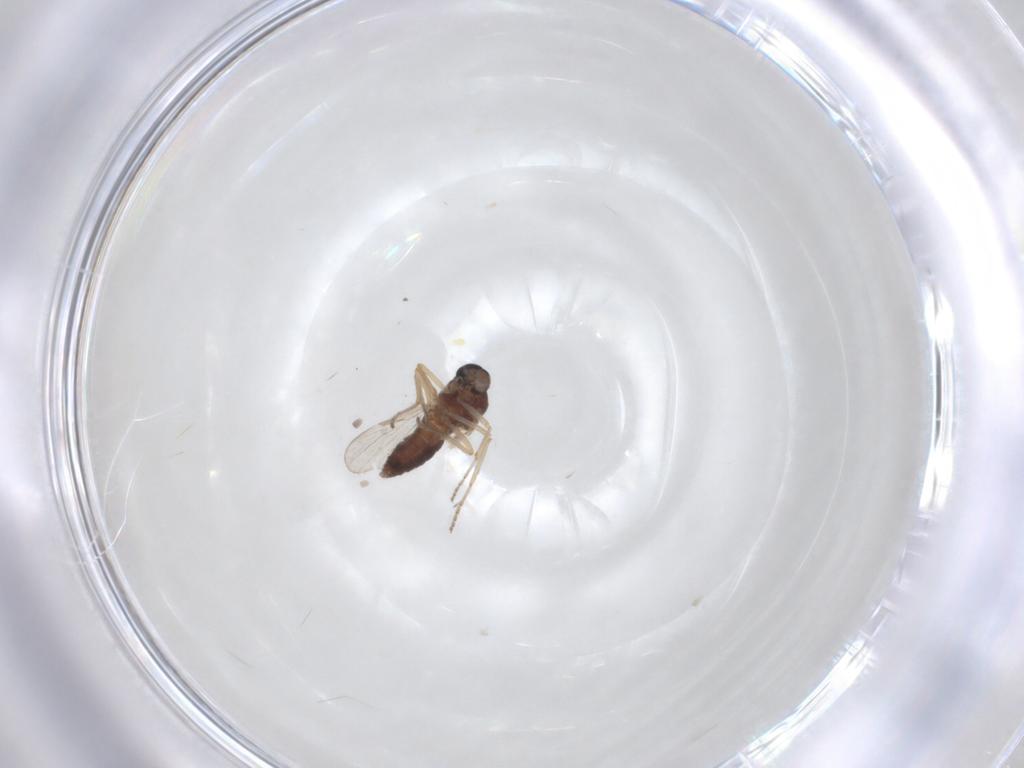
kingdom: Animalia
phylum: Arthropoda
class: Insecta
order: Diptera
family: Ceratopogonidae
